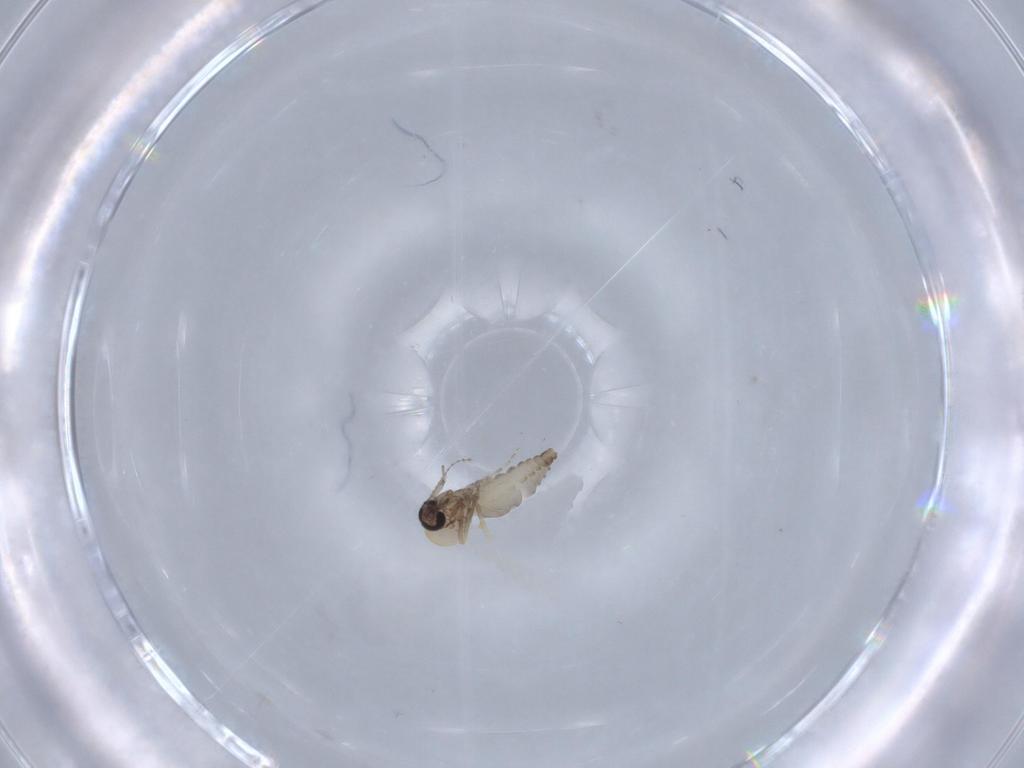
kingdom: Animalia
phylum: Arthropoda
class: Insecta
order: Diptera
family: Ceratopogonidae
